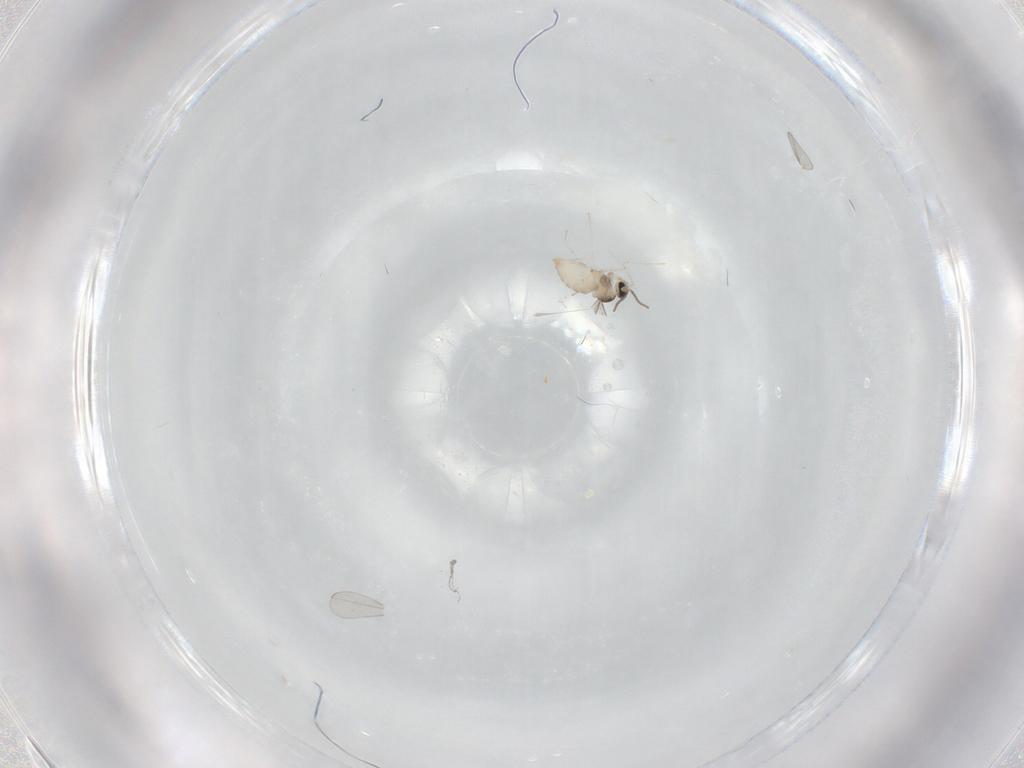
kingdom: Animalia
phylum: Arthropoda
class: Insecta
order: Diptera
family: Cecidomyiidae
